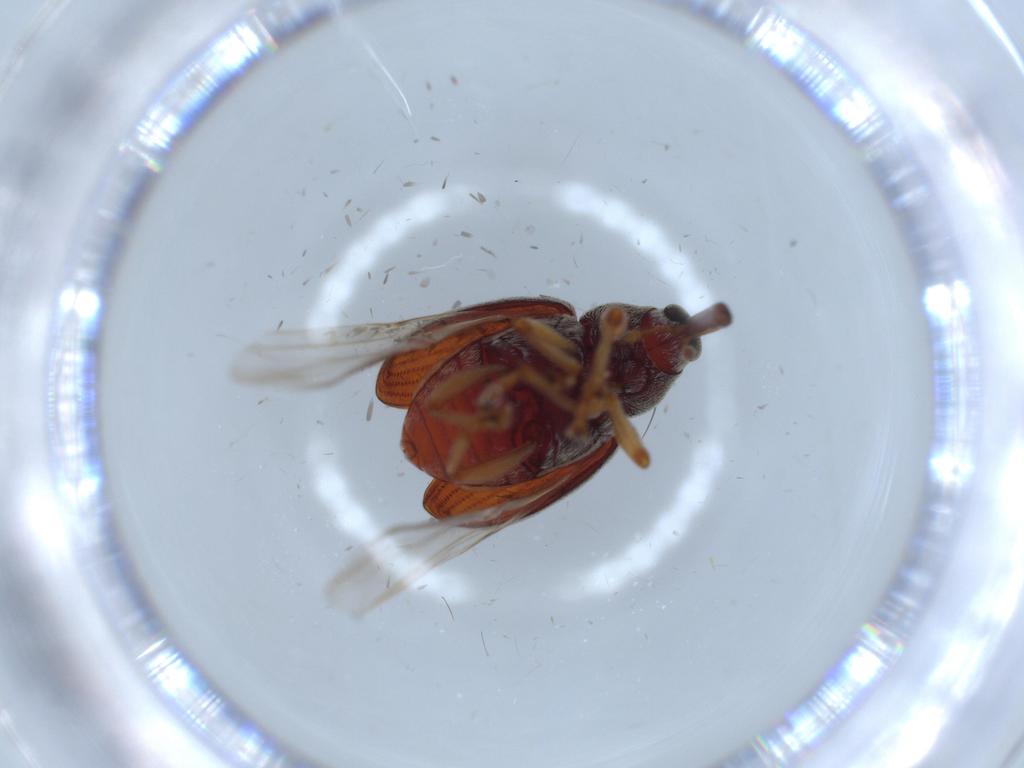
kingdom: Animalia
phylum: Arthropoda
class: Insecta
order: Coleoptera
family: Curculionidae
